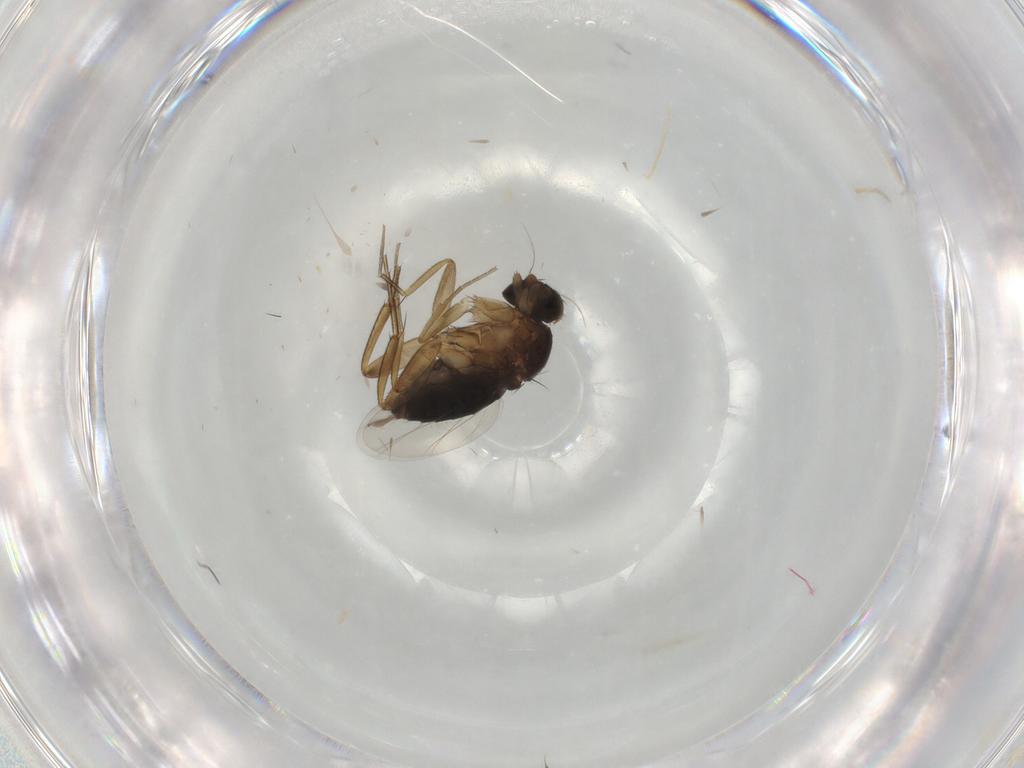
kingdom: Animalia
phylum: Arthropoda
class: Insecta
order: Diptera
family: Phoridae
